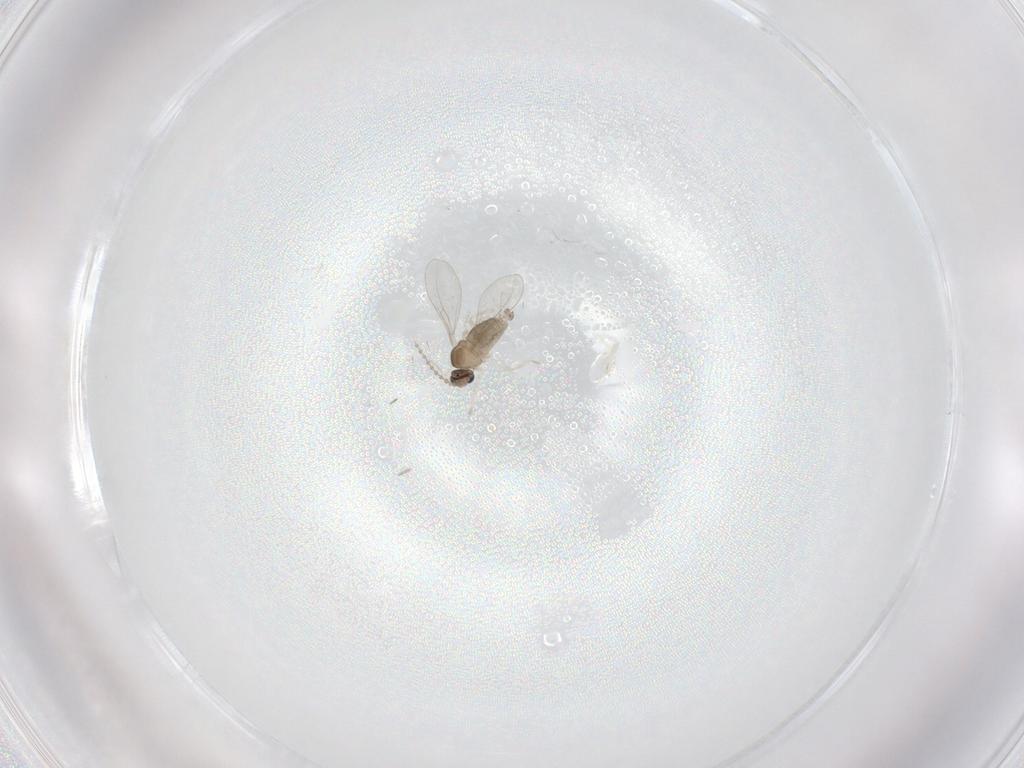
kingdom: Animalia
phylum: Arthropoda
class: Insecta
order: Diptera
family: Cecidomyiidae
